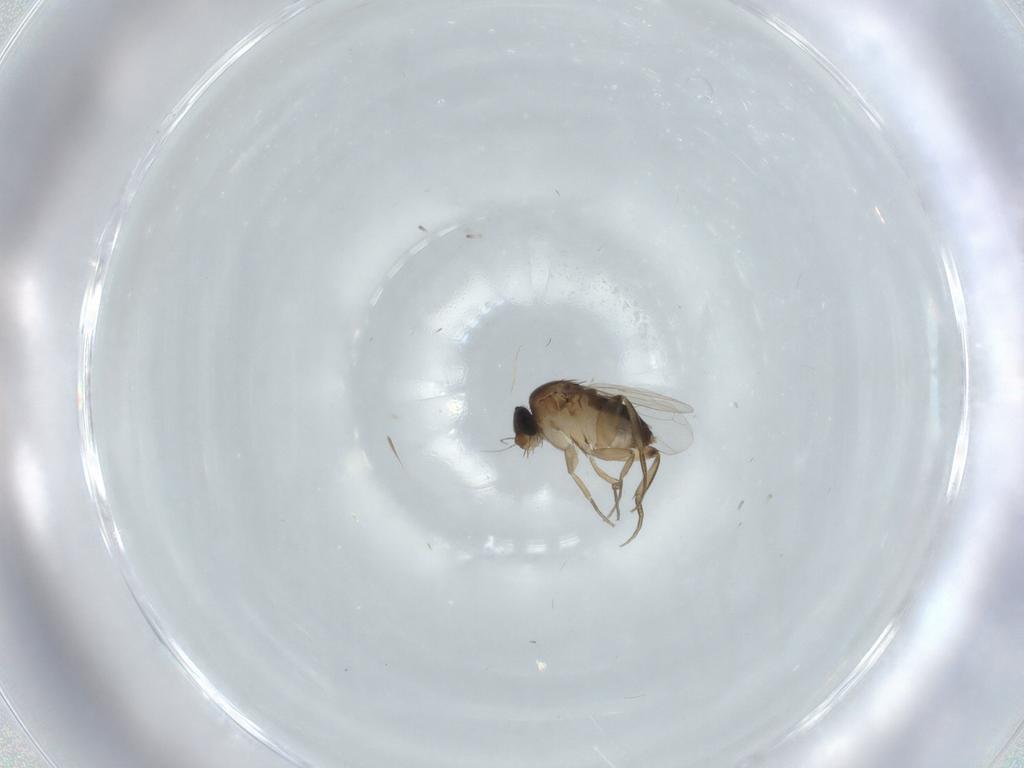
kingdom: Animalia
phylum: Arthropoda
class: Insecta
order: Diptera
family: Phoridae
